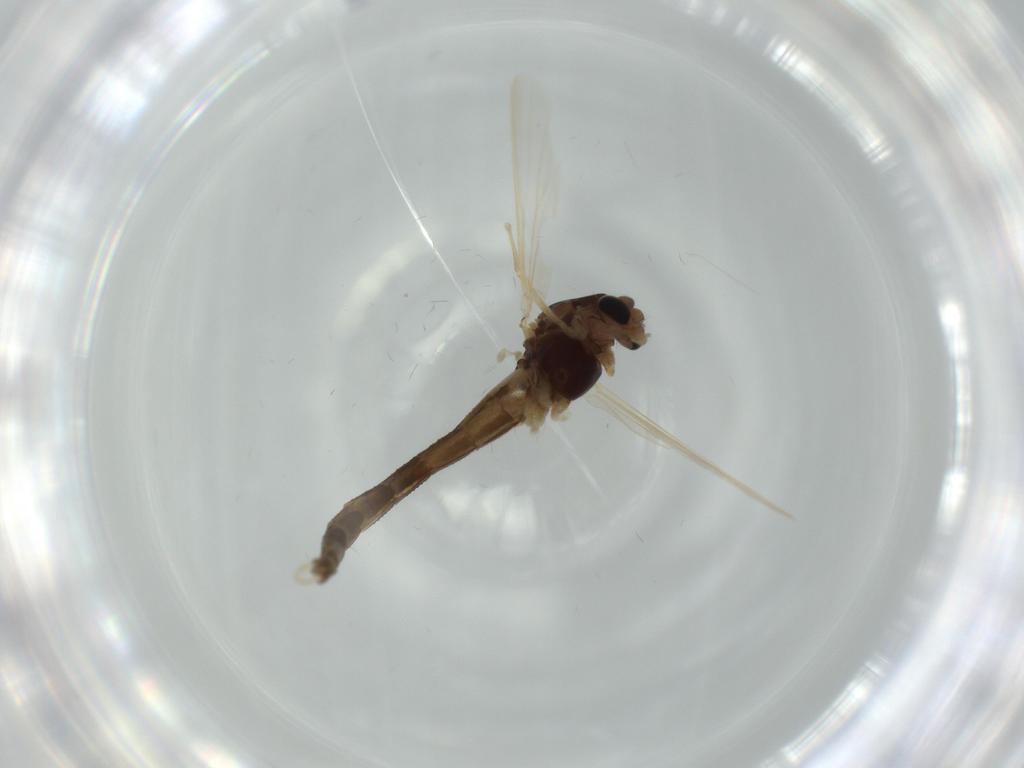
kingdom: Animalia
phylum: Arthropoda
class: Insecta
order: Diptera
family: Chironomidae
